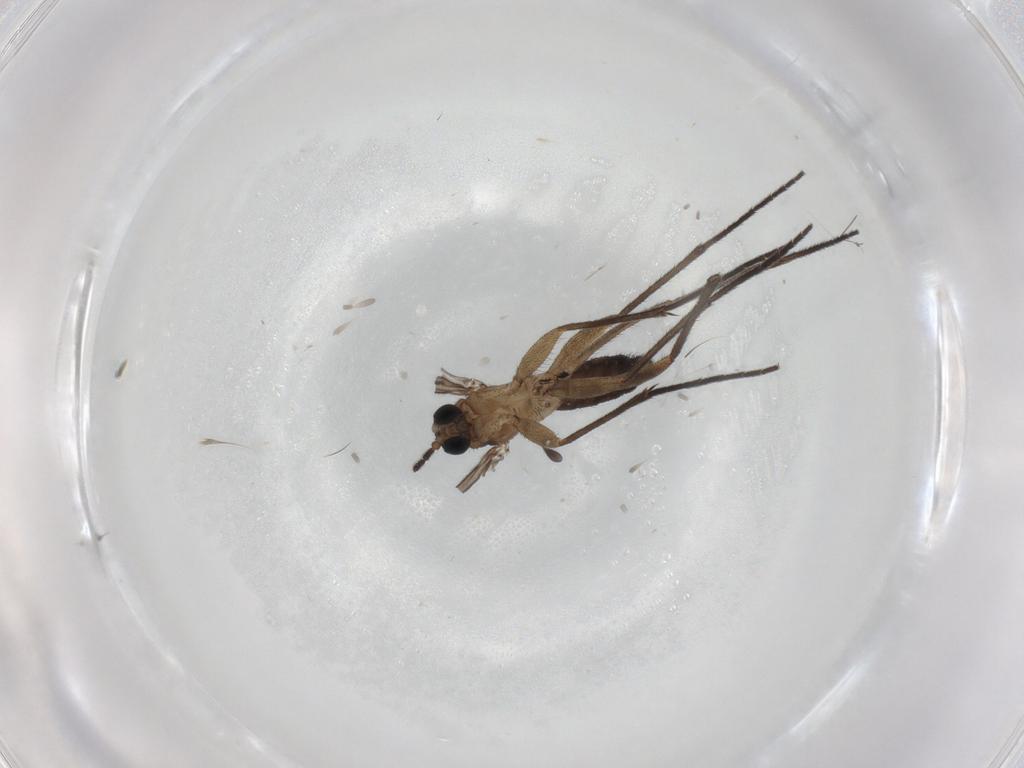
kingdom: Animalia
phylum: Arthropoda
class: Insecta
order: Diptera
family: Sciaridae
